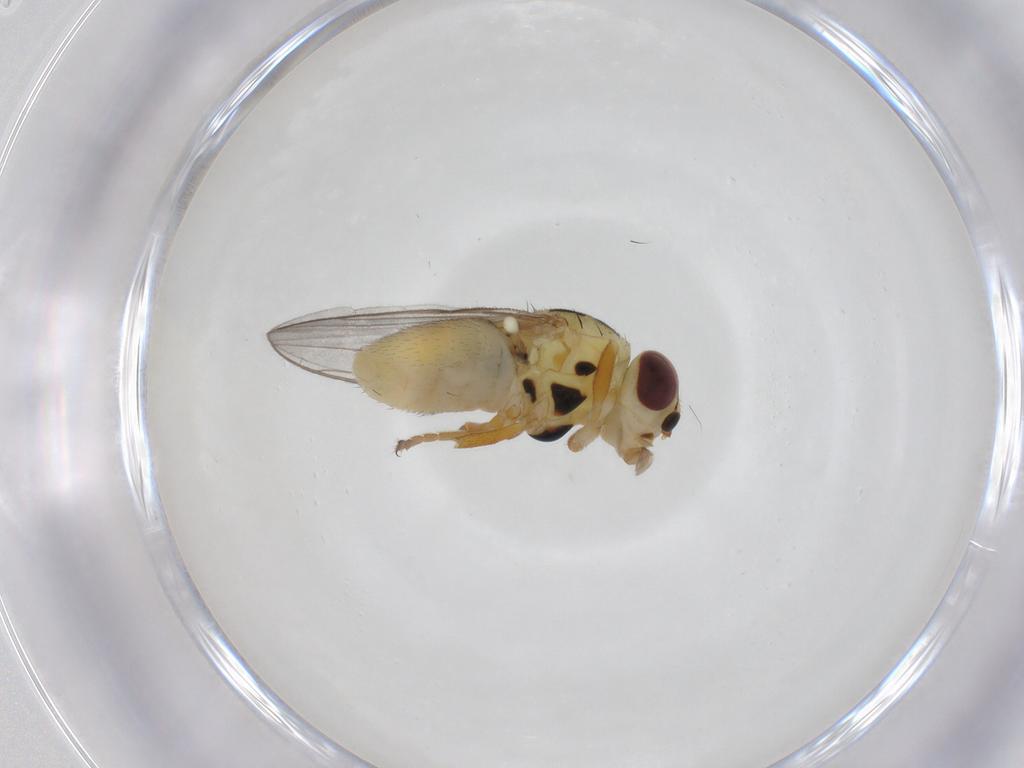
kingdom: Animalia
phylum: Arthropoda
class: Insecta
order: Diptera
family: Chloropidae
